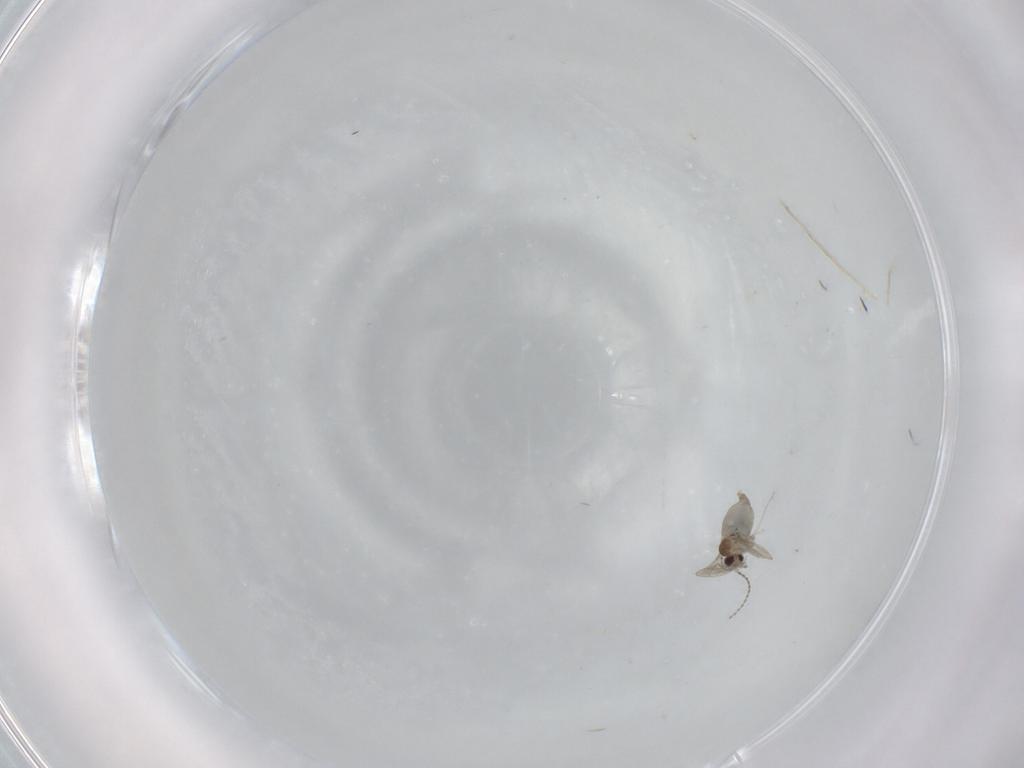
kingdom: Animalia
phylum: Arthropoda
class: Insecta
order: Diptera
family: Cecidomyiidae
